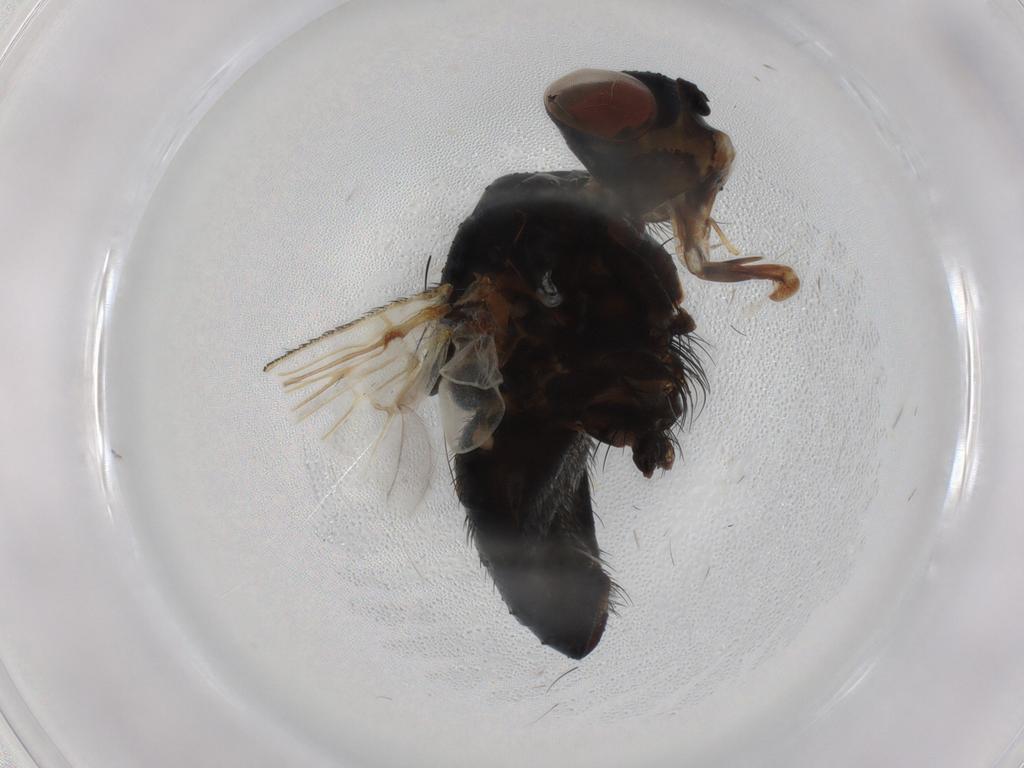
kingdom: Animalia
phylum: Arthropoda
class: Insecta
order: Diptera
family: Tachinidae
